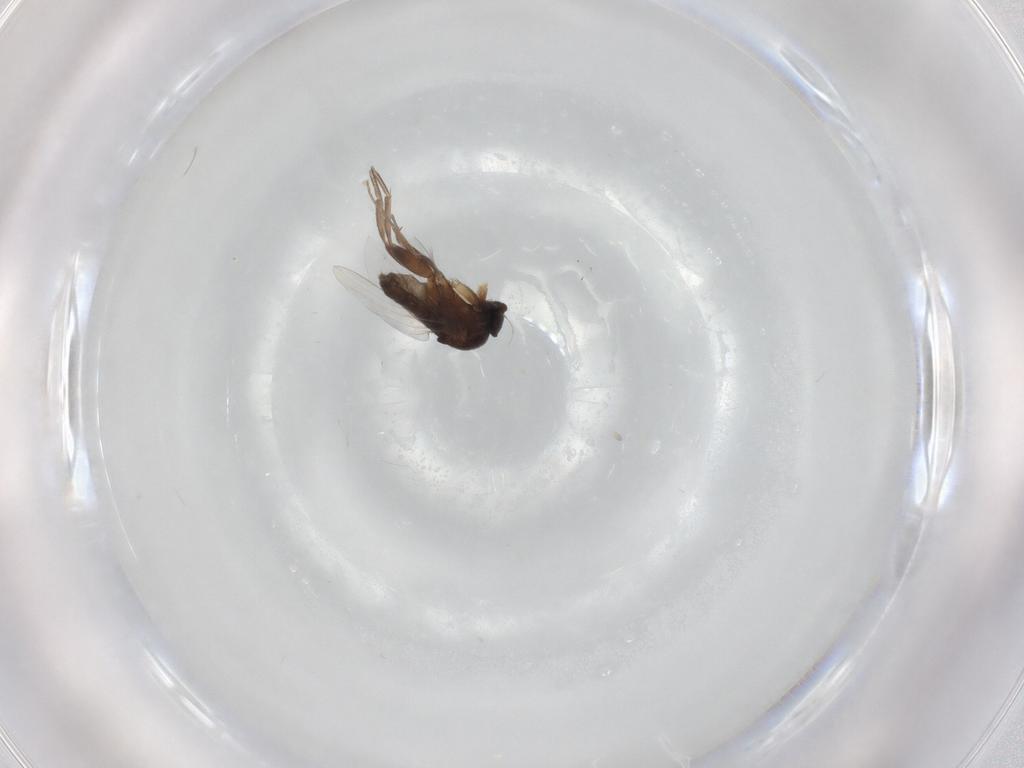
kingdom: Animalia
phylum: Arthropoda
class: Insecta
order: Diptera
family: Phoridae
